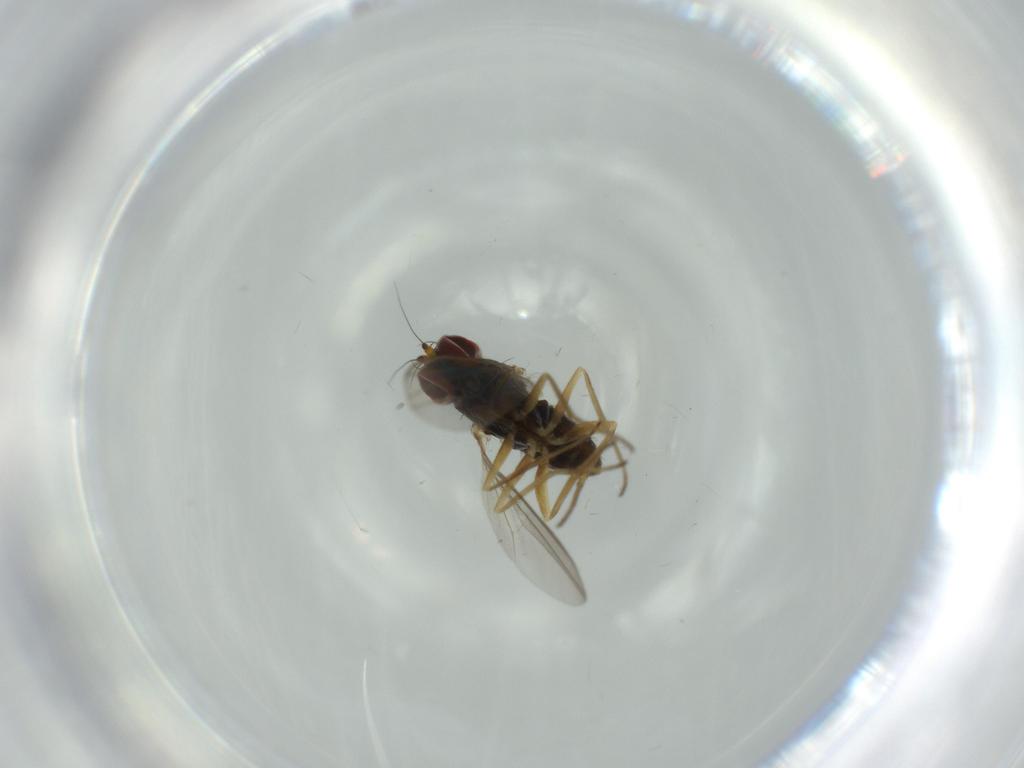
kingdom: Animalia
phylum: Arthropoda
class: Insecta
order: Diptera
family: Dolichopodidae
